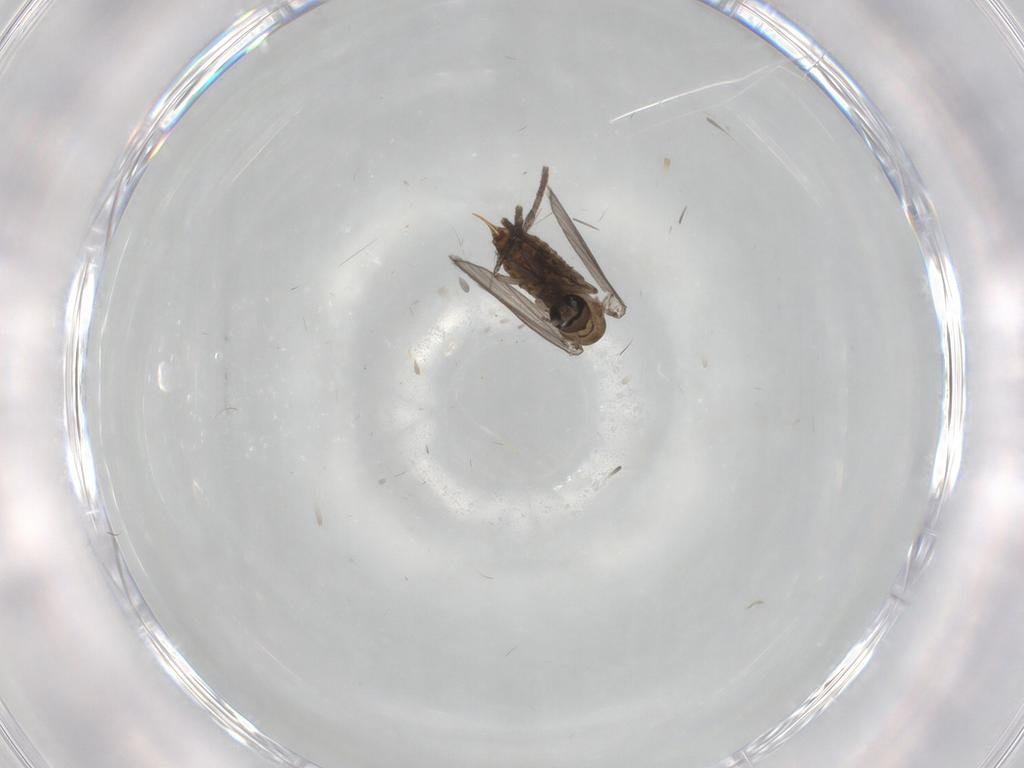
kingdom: Animalia
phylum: Arthropoda
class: Insecta
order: Diptera
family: Psychodidae
